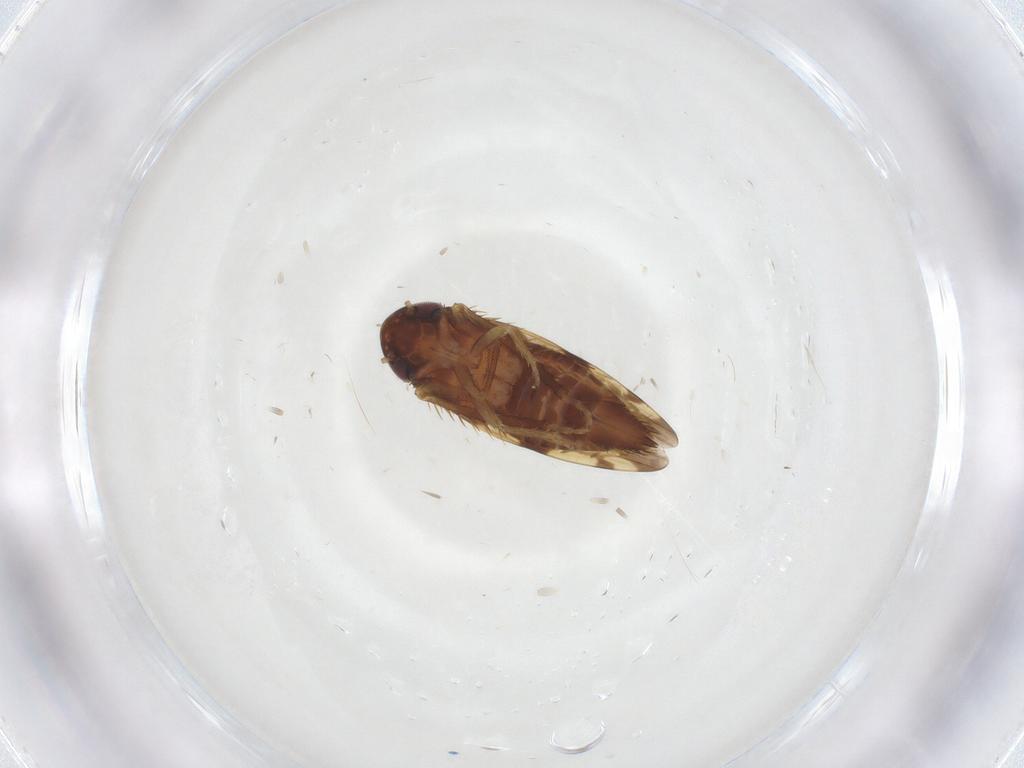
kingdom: Animalia
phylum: Arthropoda
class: Insecta
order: Hemiptera
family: Cicadellidae
